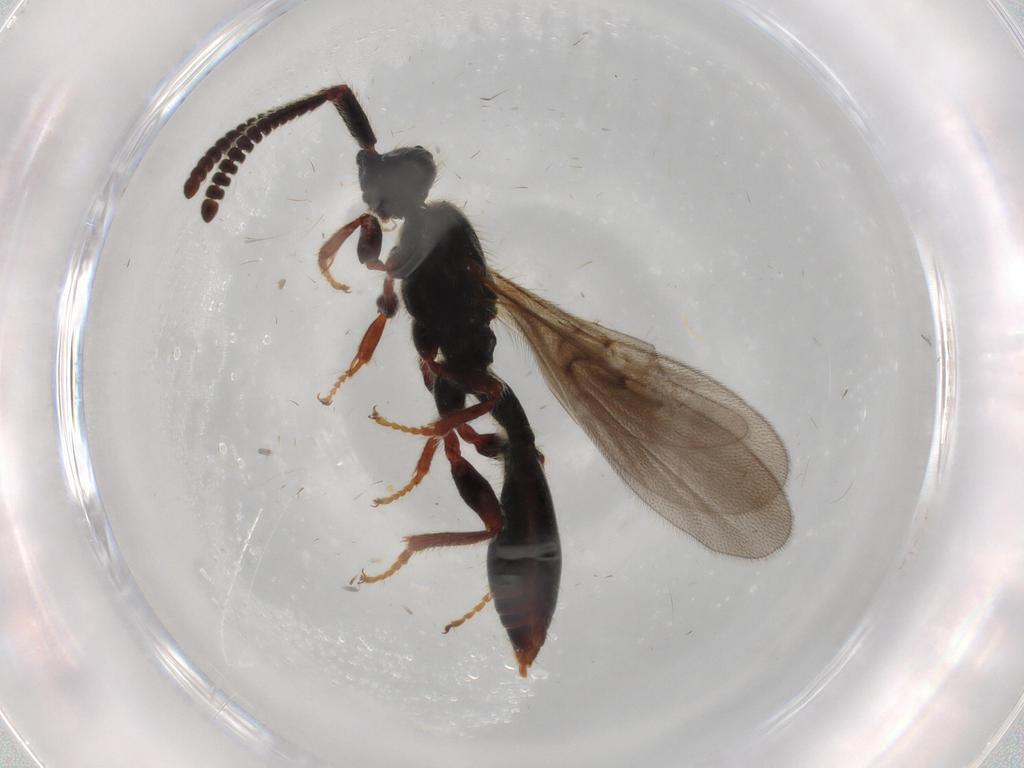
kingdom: Animalia
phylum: Arthropoda
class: Insecta
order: Hymenoptera
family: Diapriidae
